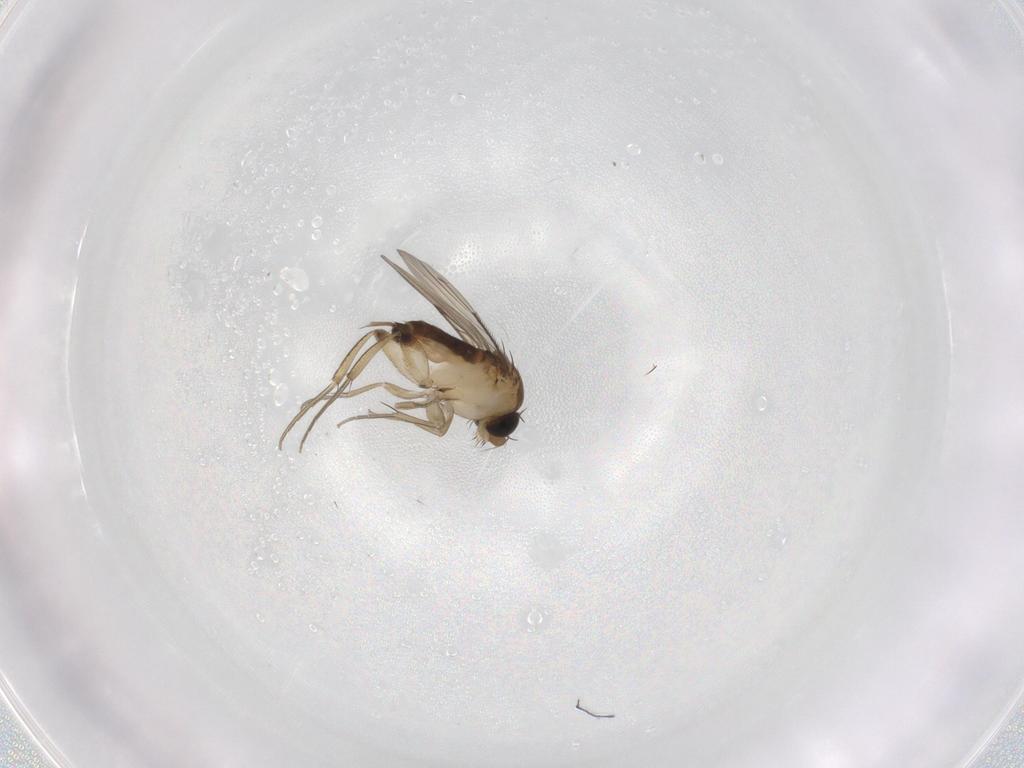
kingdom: Animalia
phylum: Arthropoda
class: Insecta
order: Diptera
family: Phoridae
